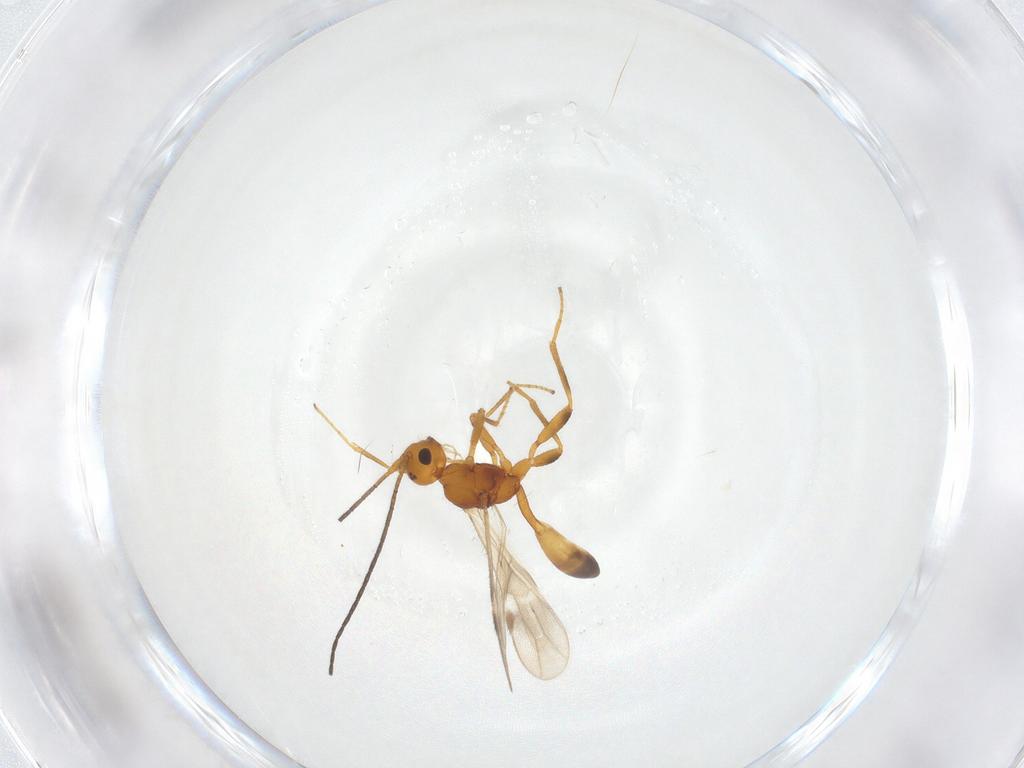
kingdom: Animalia
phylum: Arthropoda
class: Insecta
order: Hymenoptera
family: Braconidae
